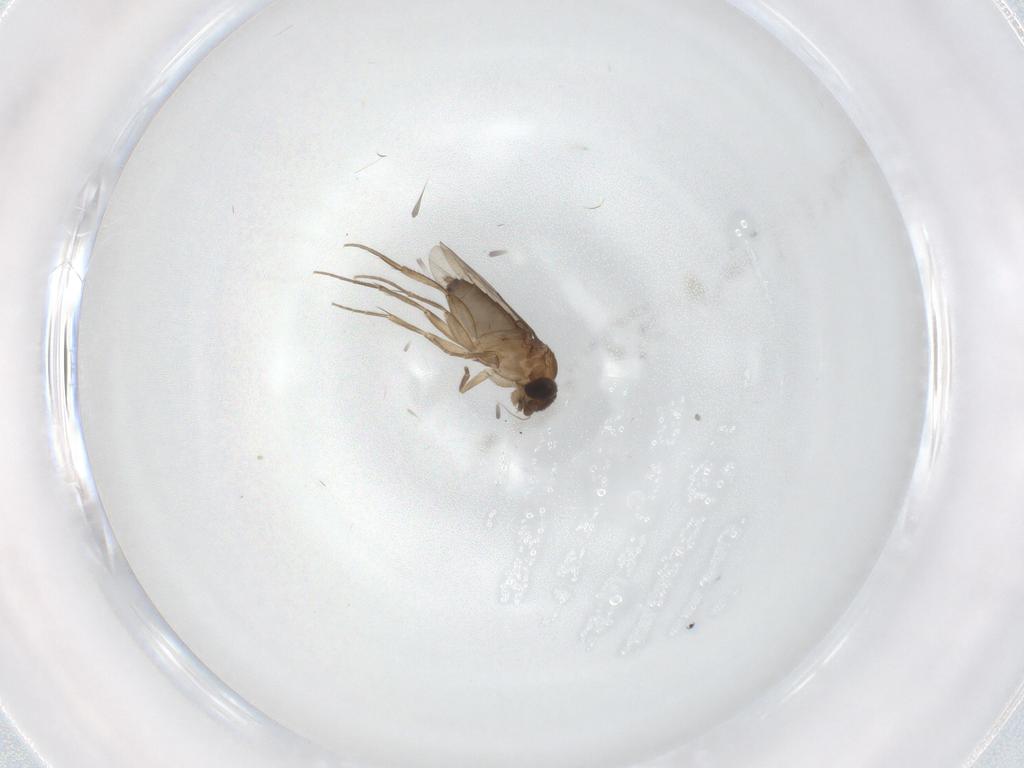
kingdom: Animalia
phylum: Arthropoda
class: Insecta
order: Diptera
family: Phoridae
